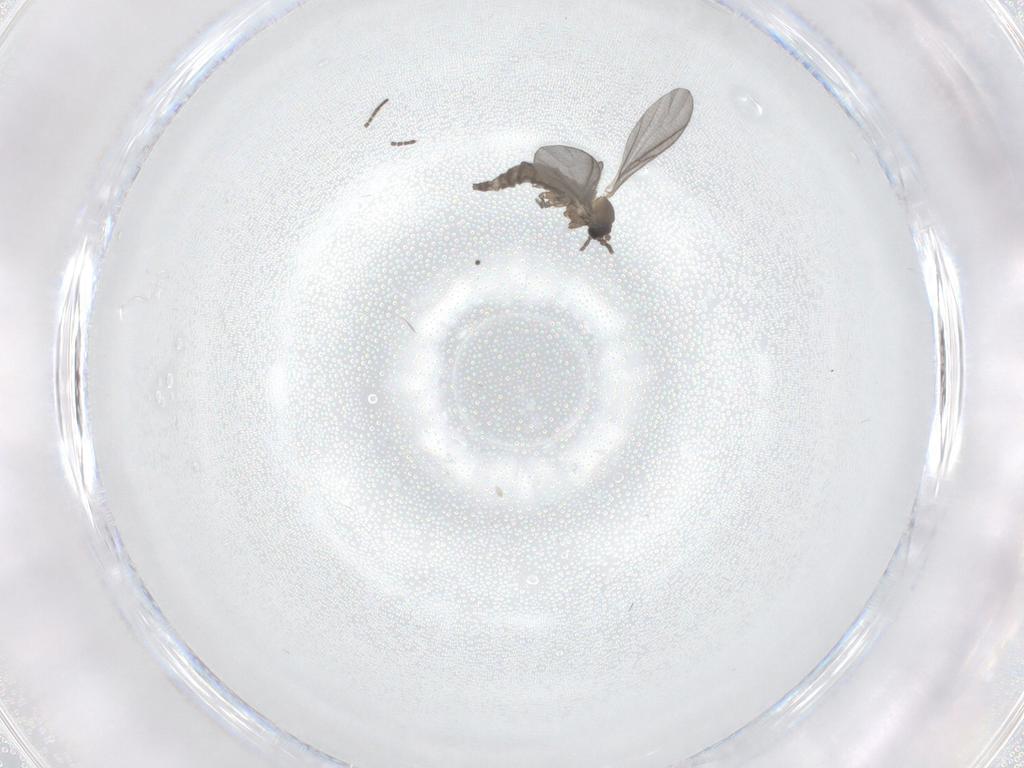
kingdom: Animalia
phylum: Arthropoda
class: Insecta
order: Diptera
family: Sciaridae
